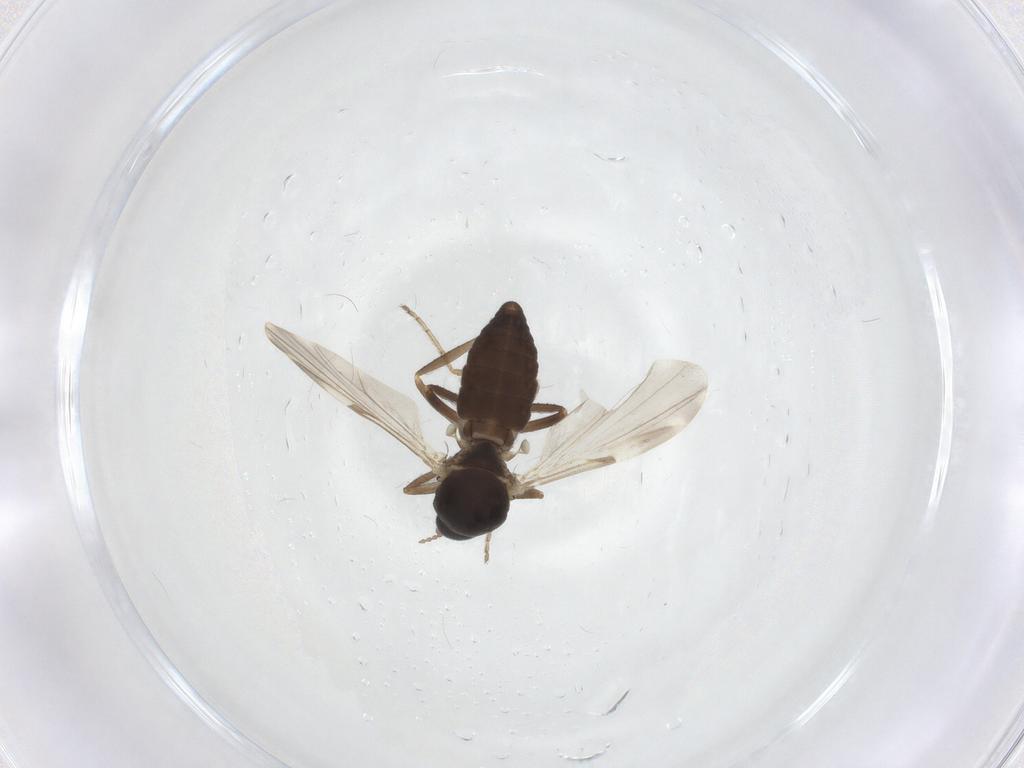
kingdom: Animalia
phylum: Arthropoda
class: Insecta
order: Diptera
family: Ceratopogonidae
